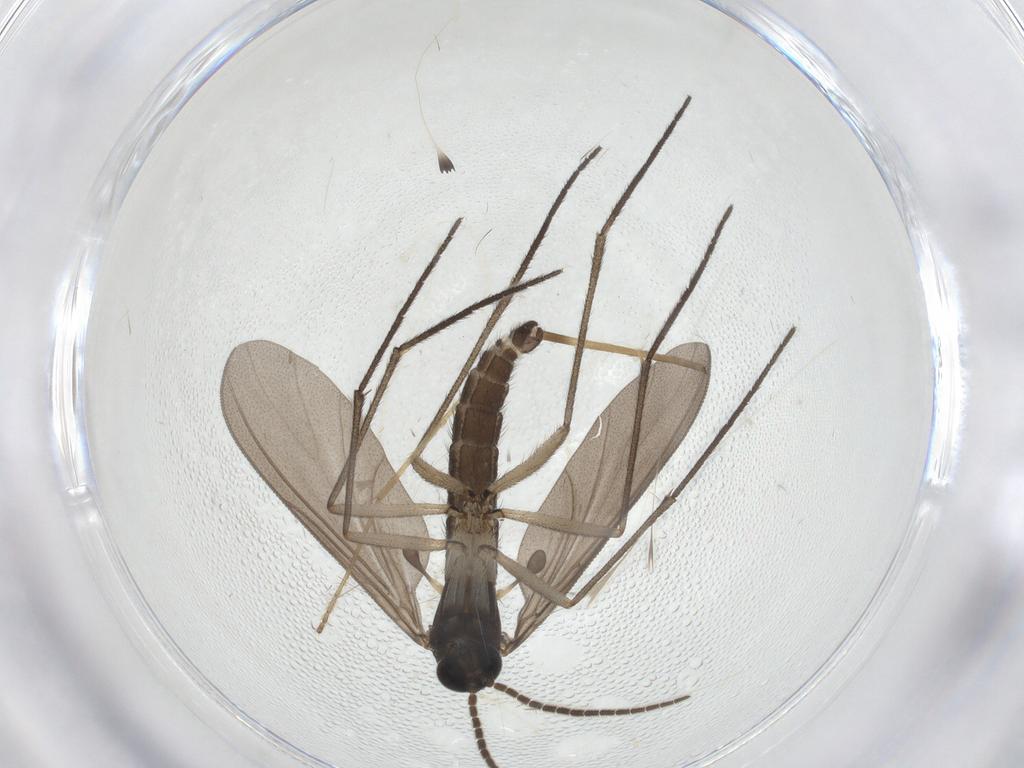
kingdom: Animalia
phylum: Arthropoda
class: Insecta
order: Diptera
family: Limoniidae
